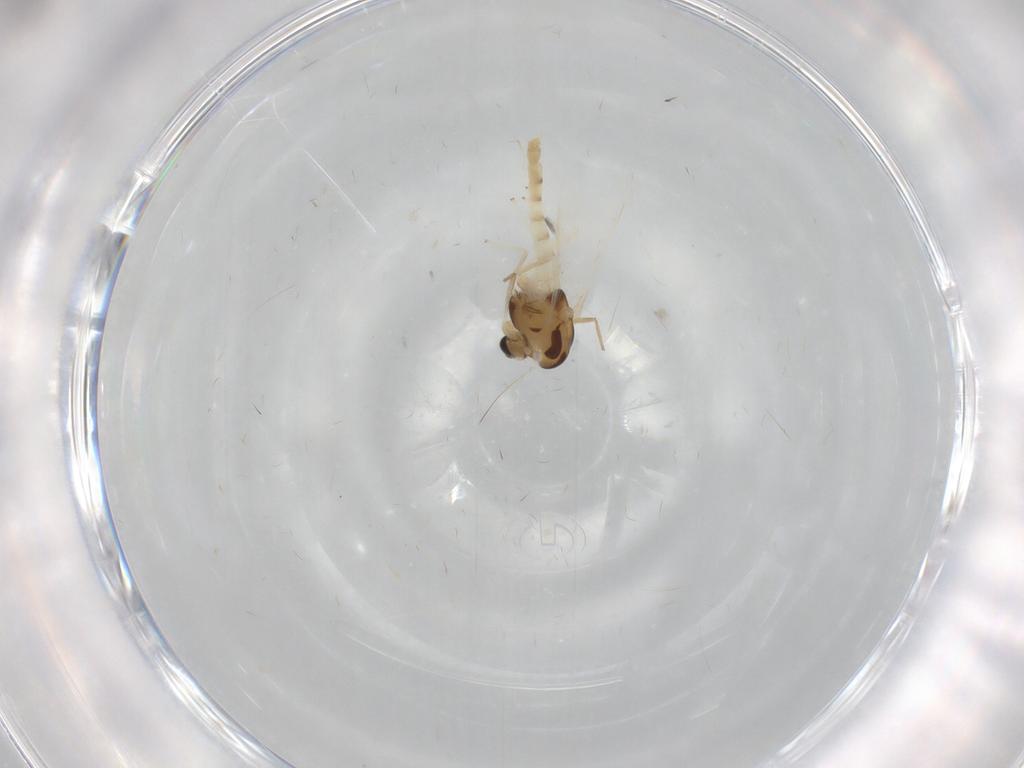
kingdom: Animalia
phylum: Arthropoda
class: Insecta
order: Diptera
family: Chironomidae
